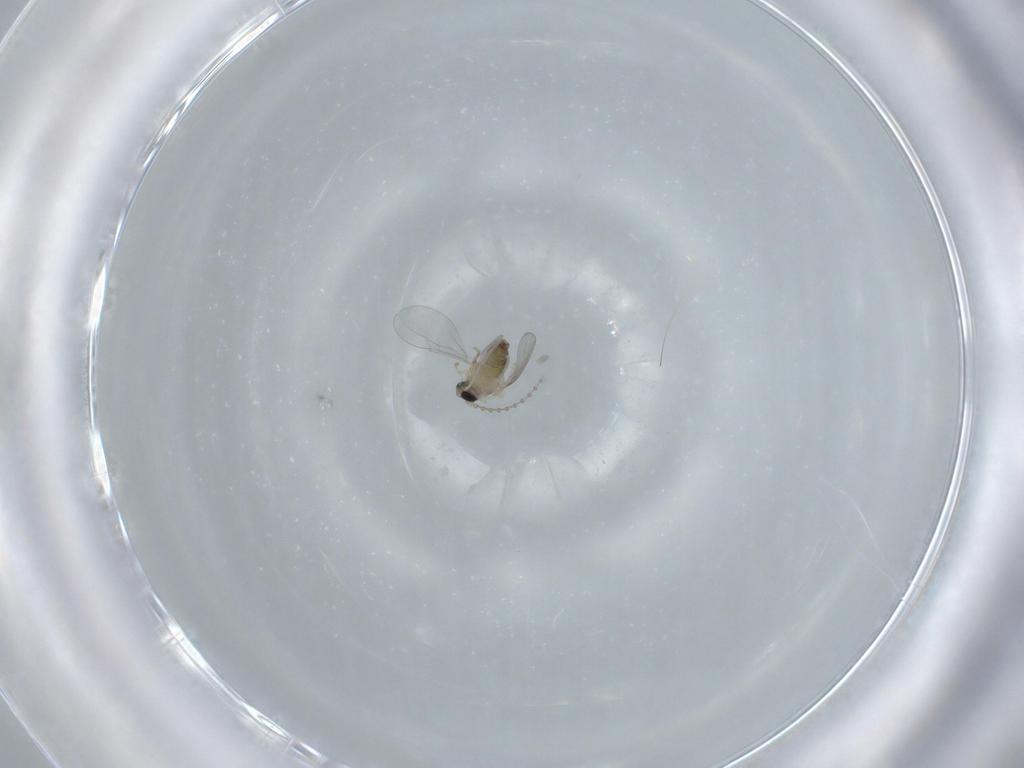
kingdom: Animalia
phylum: Arthropoda
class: Insecta
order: Diptera
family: Cecidomyiidae
